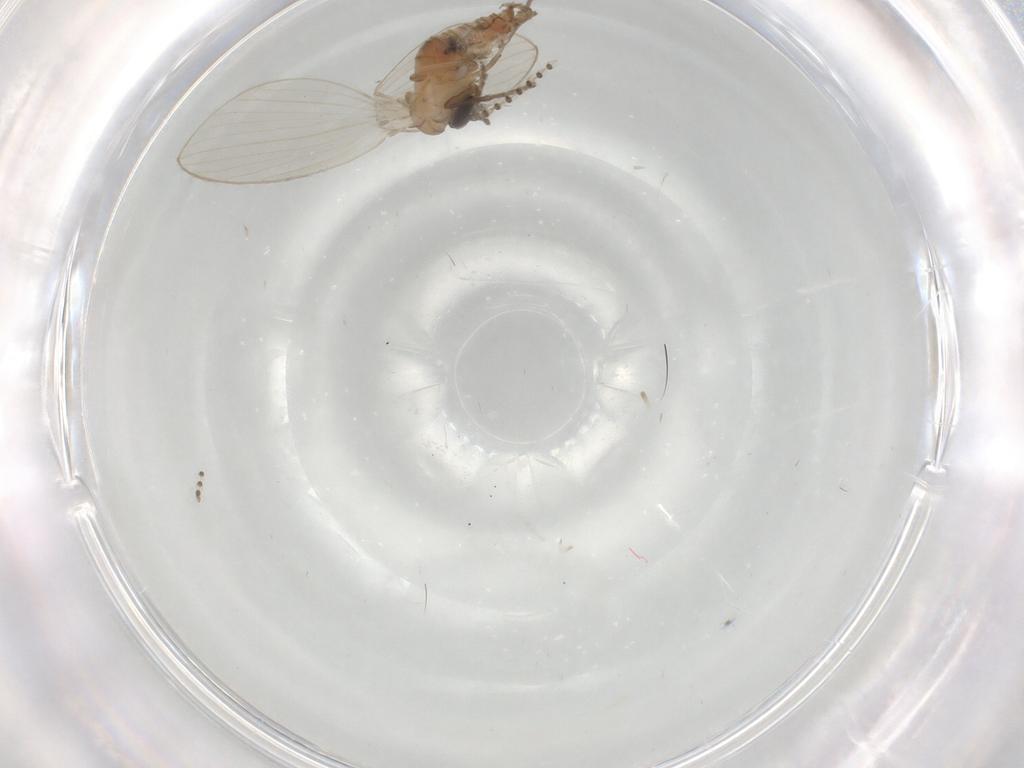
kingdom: Animalia
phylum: Arthropoda
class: Insecta
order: Diptera
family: Psychodidae
